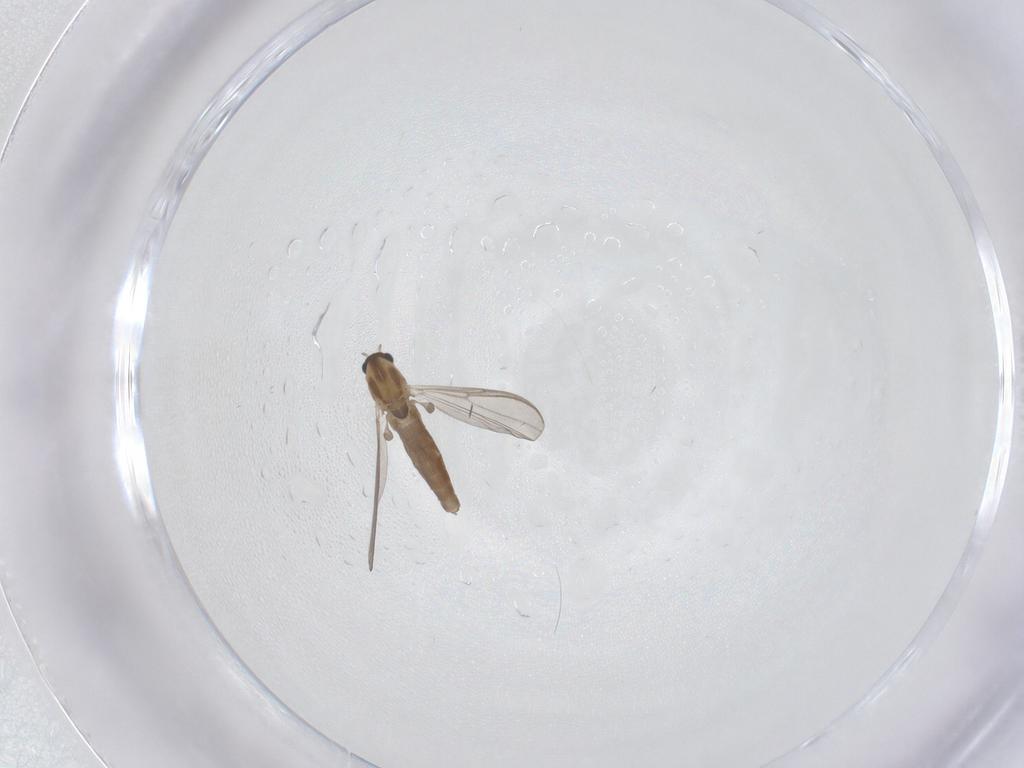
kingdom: Animalia
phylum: Arthropoda
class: Insecta
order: Diptera
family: Chironomidae
